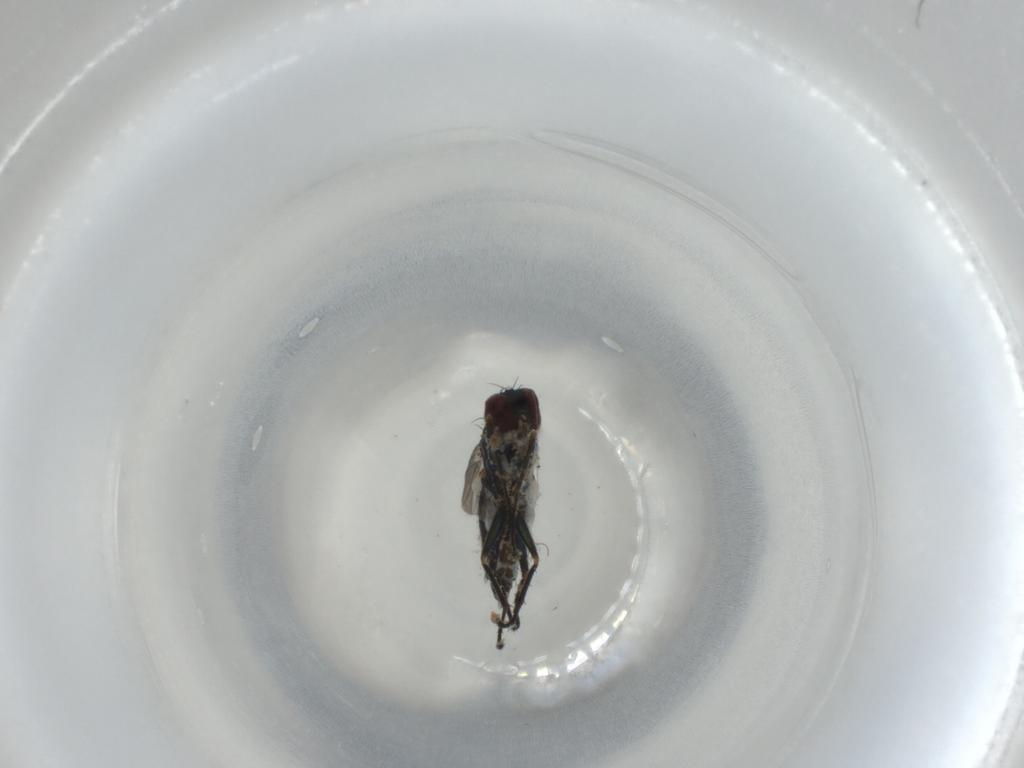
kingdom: Animalia
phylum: Arthropoda
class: Insecta
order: Diptera
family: Dolichopodidae
